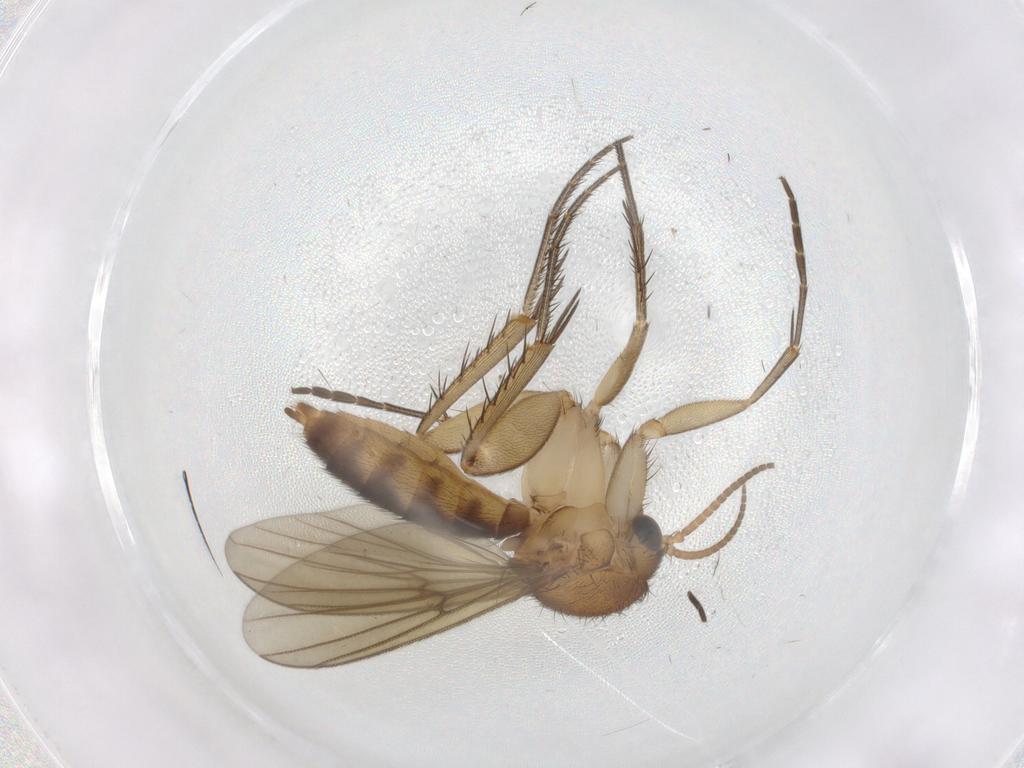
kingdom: Animalia
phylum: Arthropoda
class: Insecta
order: Diptera
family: Mycetophilidae
